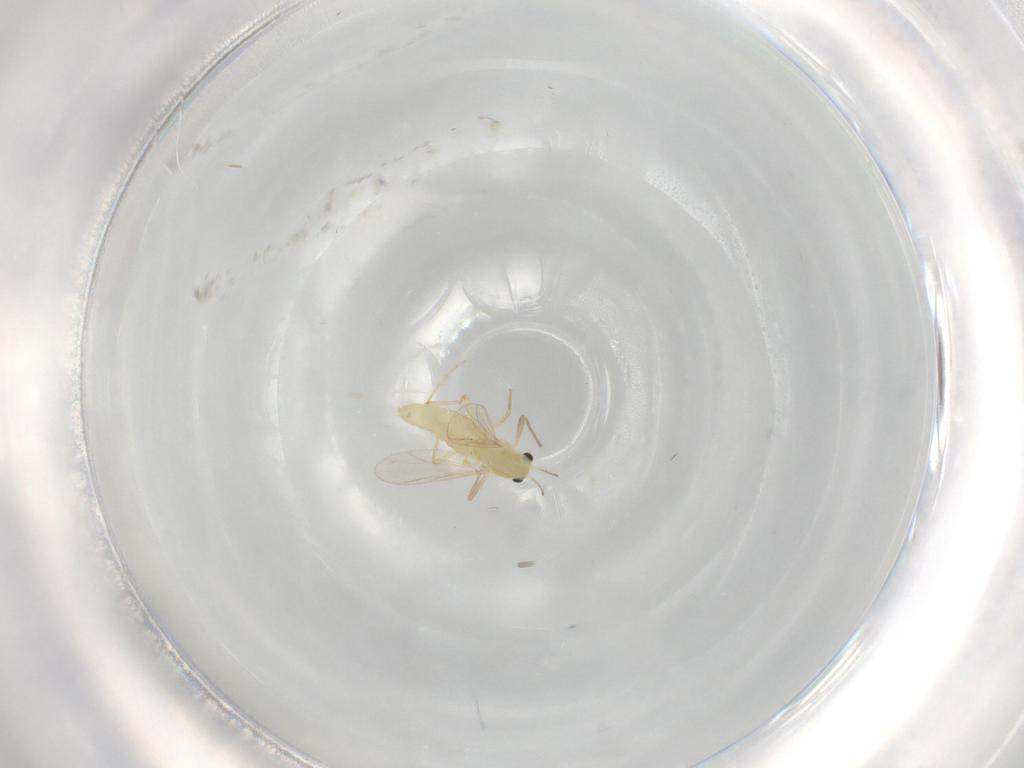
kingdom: Animalia
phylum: Arthropoda
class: Insecta
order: Diptera
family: Chironomidae
